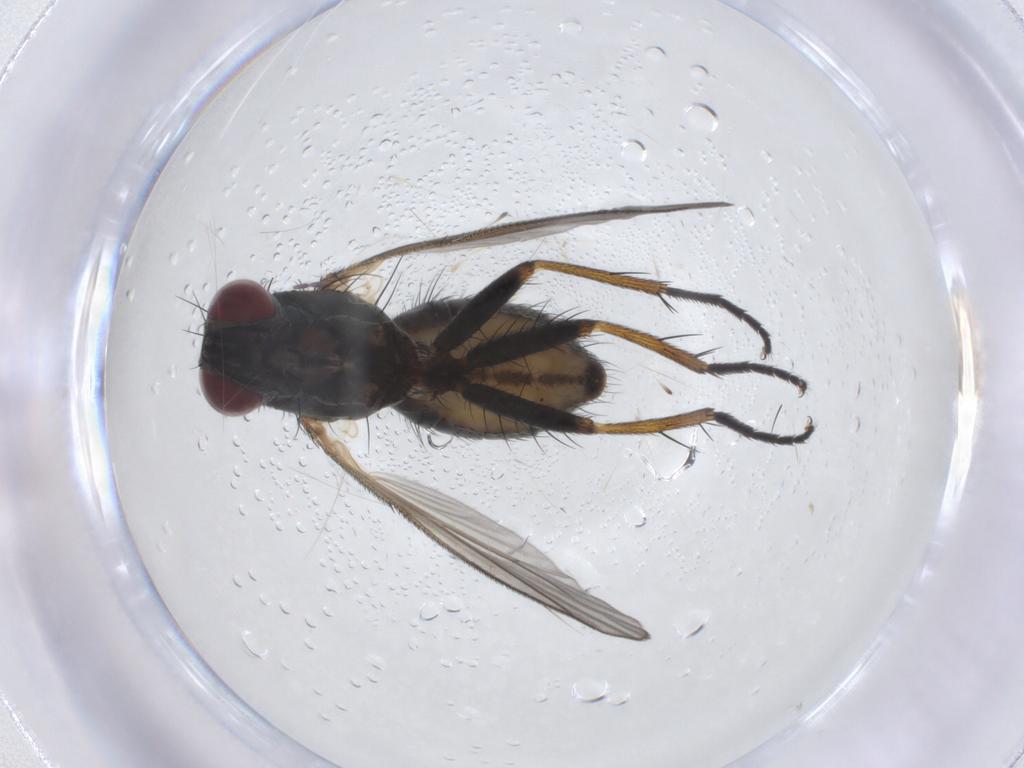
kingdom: Animalia
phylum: Arthropoda
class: Insecta
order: Diptera
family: Muscidae
